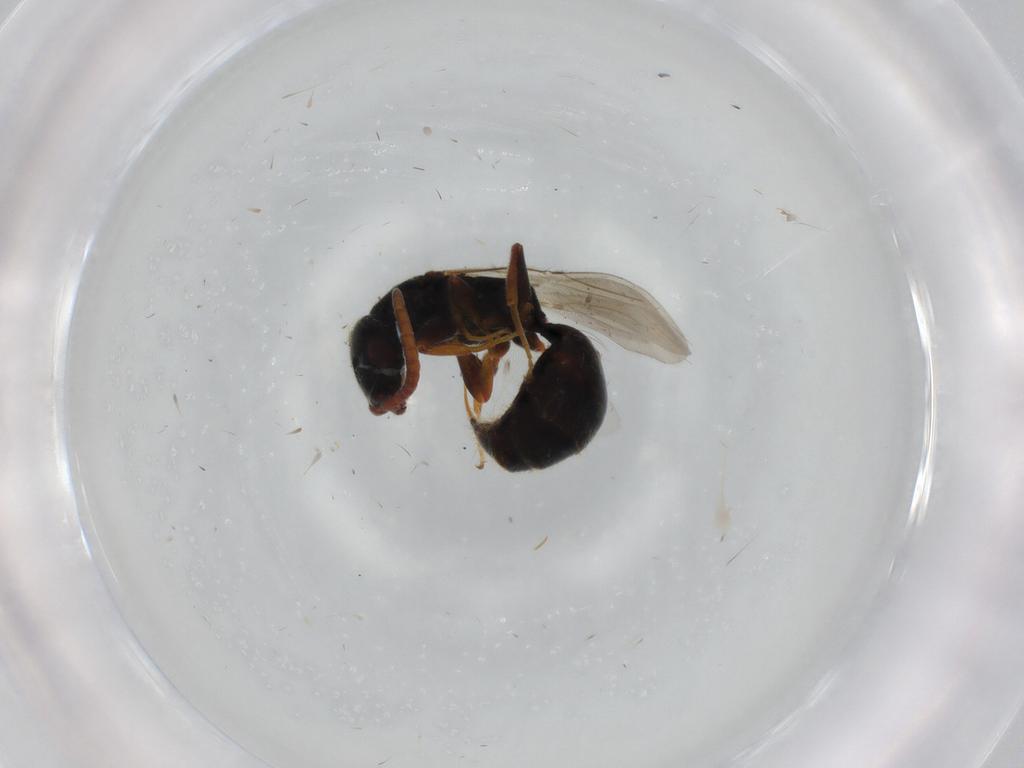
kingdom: Animalia
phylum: Arthropoda
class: Insecta
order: Hymenoptera
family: Bethylidae
